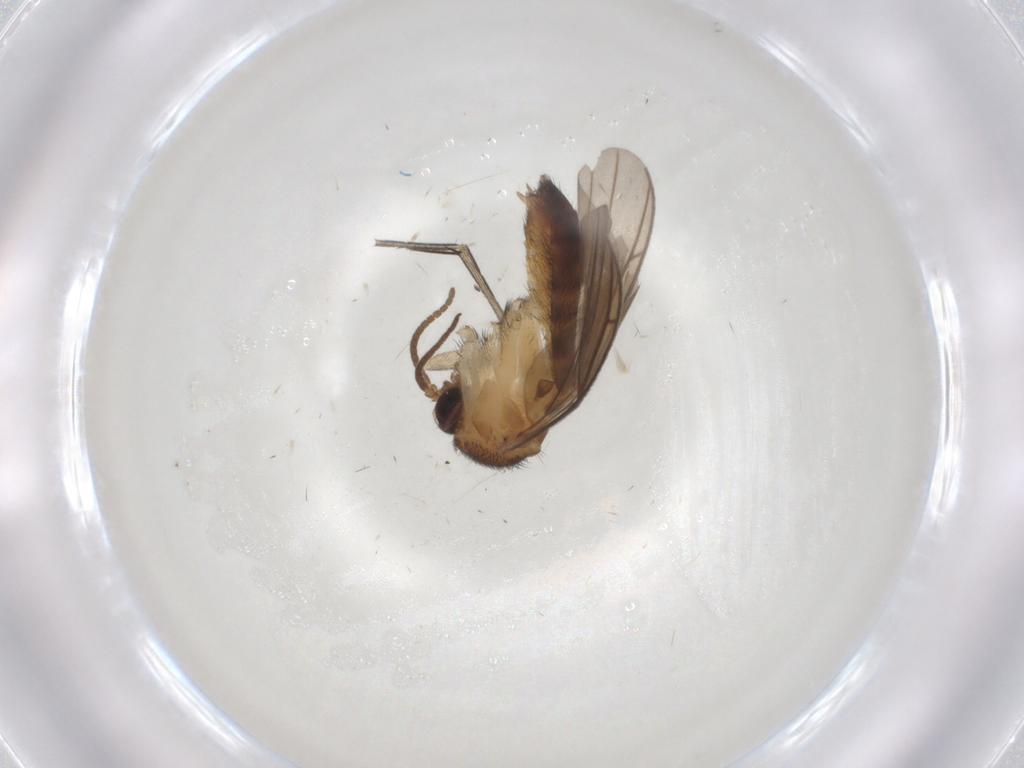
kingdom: Animalia
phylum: Arthropoda
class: Insecta
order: Diptera
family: Keroplatidae
